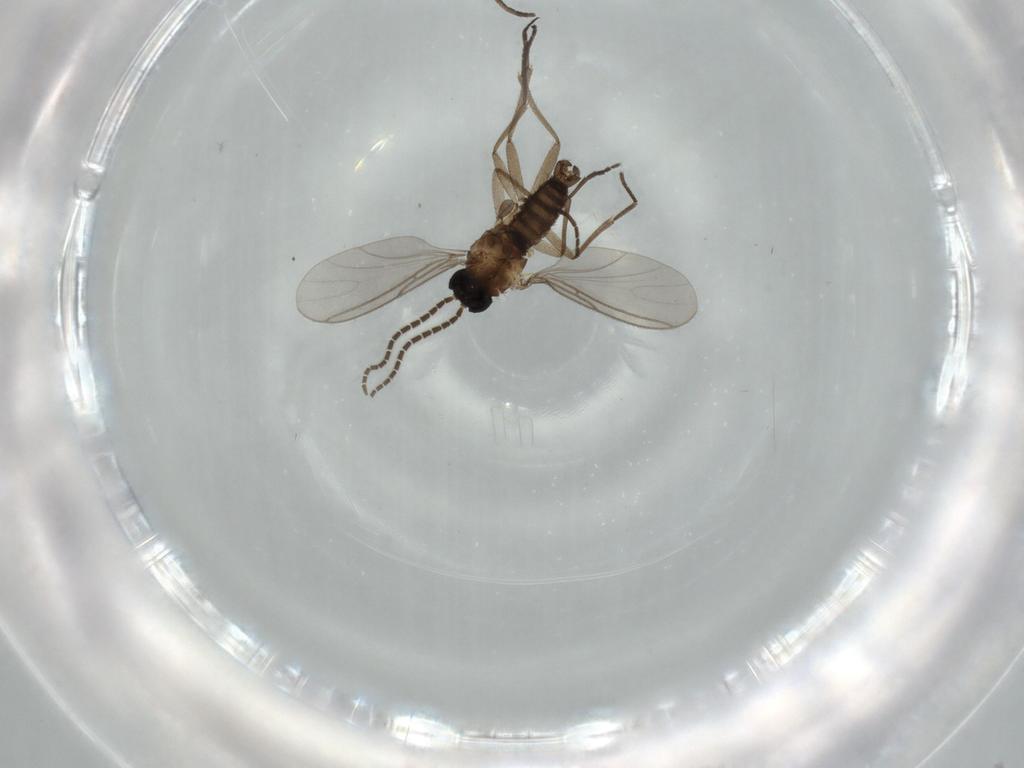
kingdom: Animalia
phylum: Arthropoda
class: Insecta
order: Diptera
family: Sciaridae
